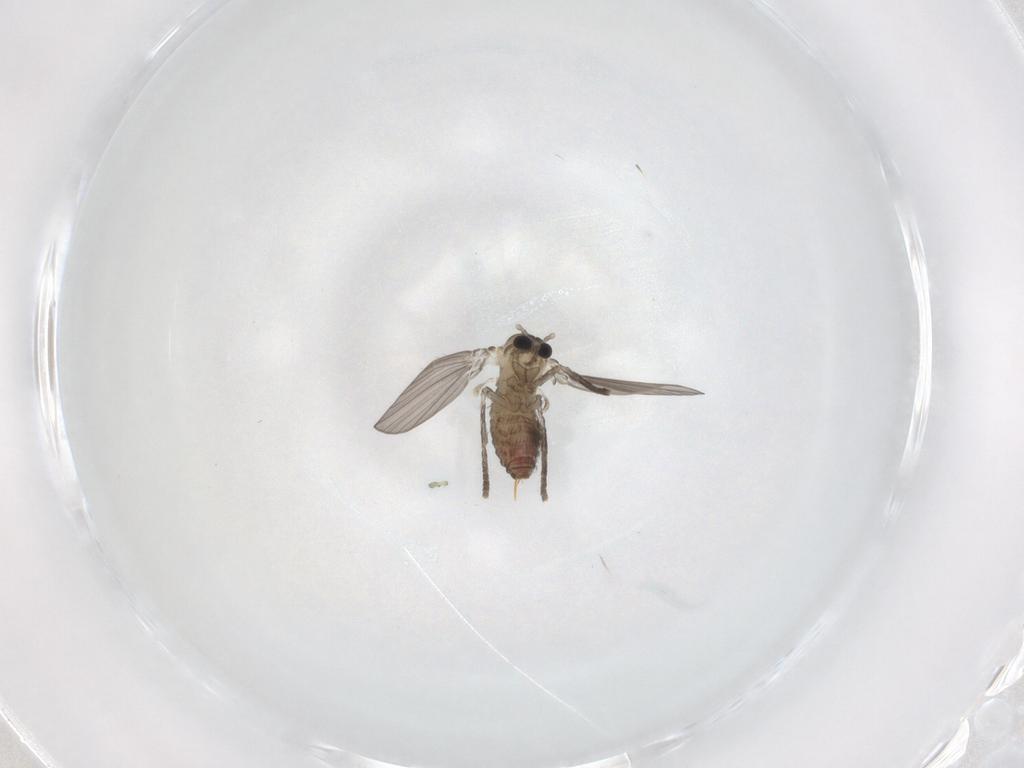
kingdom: Animalia
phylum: Arthropoda
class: Insecta
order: Diptera
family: Psychodidae
